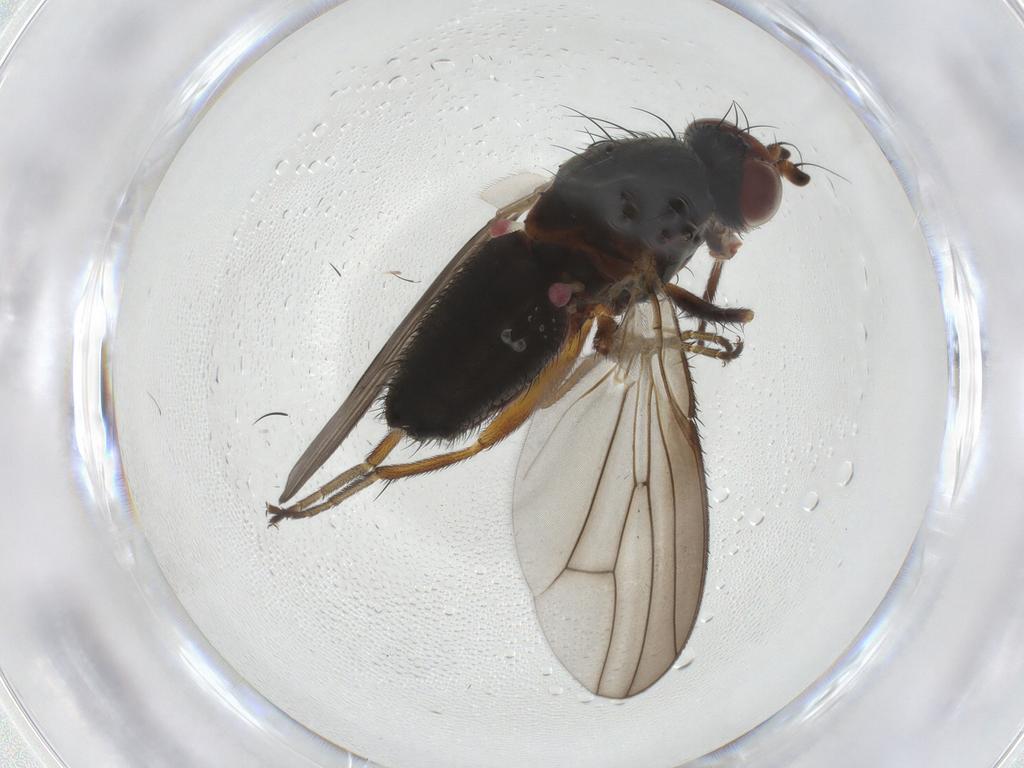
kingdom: Animalia
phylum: Arthropoda
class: Insecta
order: Diptera
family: Heleomyzidae
